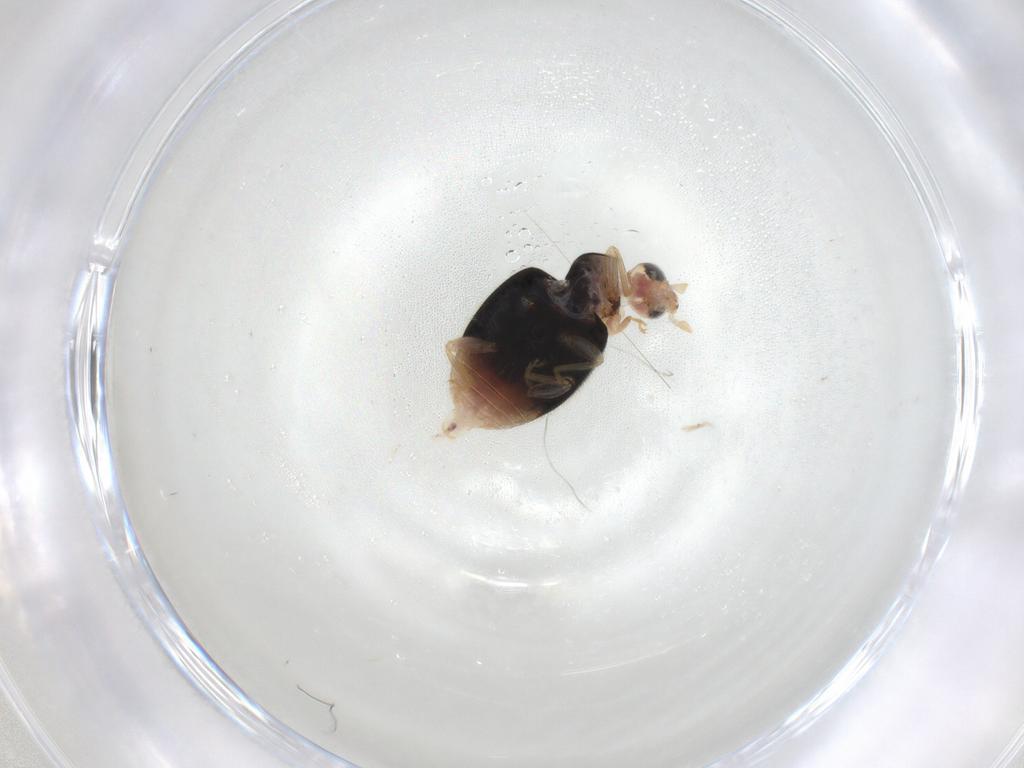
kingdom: Animalia
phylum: Arthropoda
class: Insecta
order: Coleoptera
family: Coccinellidae
